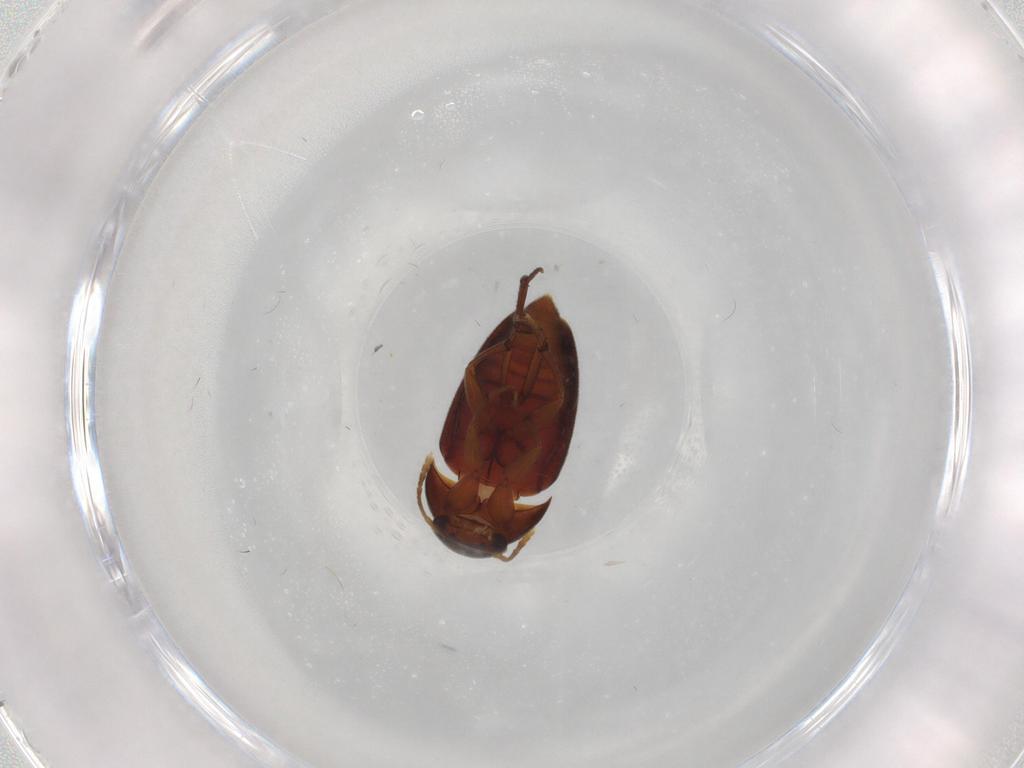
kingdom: Animalia
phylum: Arthropoda
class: Insecta
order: Coleoptera
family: Leiodidae
